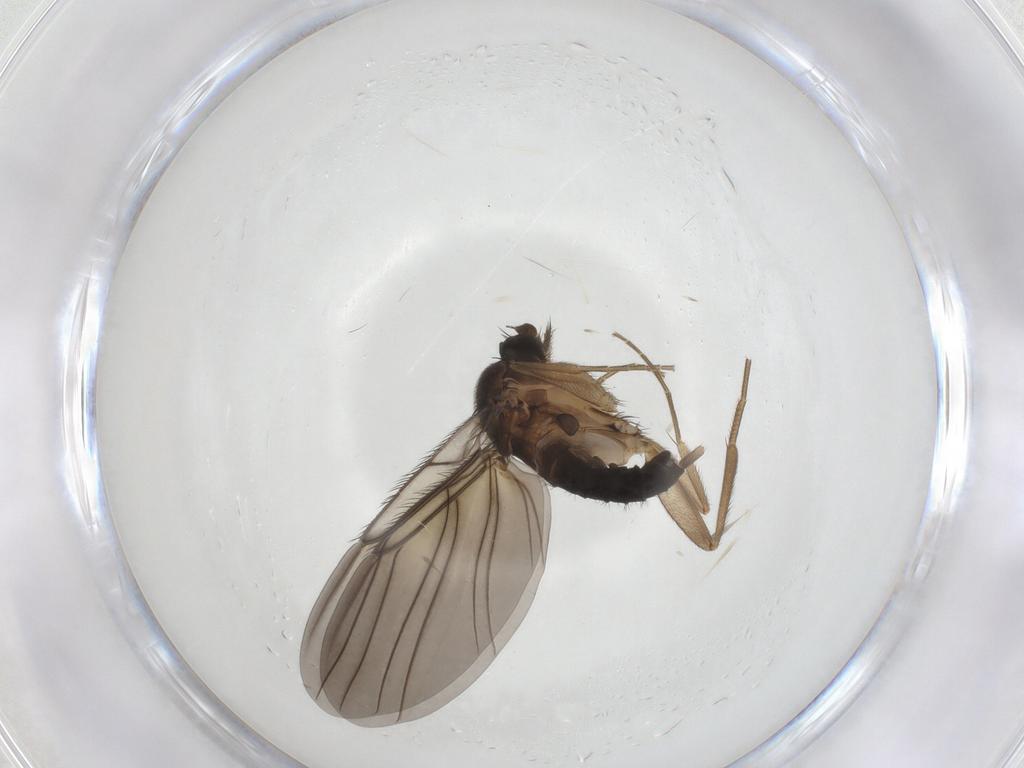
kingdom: Animalia
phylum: Arthropoda
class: Insecta
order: Diptera
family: Phoridae
